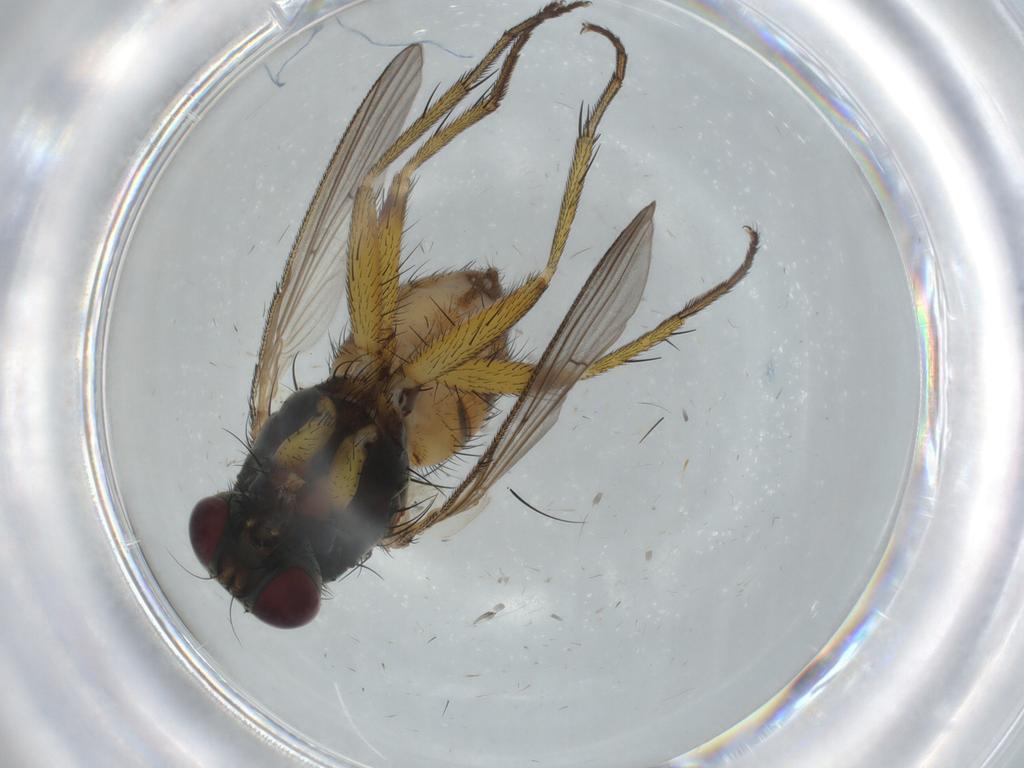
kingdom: Animalia
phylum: Arthropoda
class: Insecta
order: Diptera
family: Muscidae
